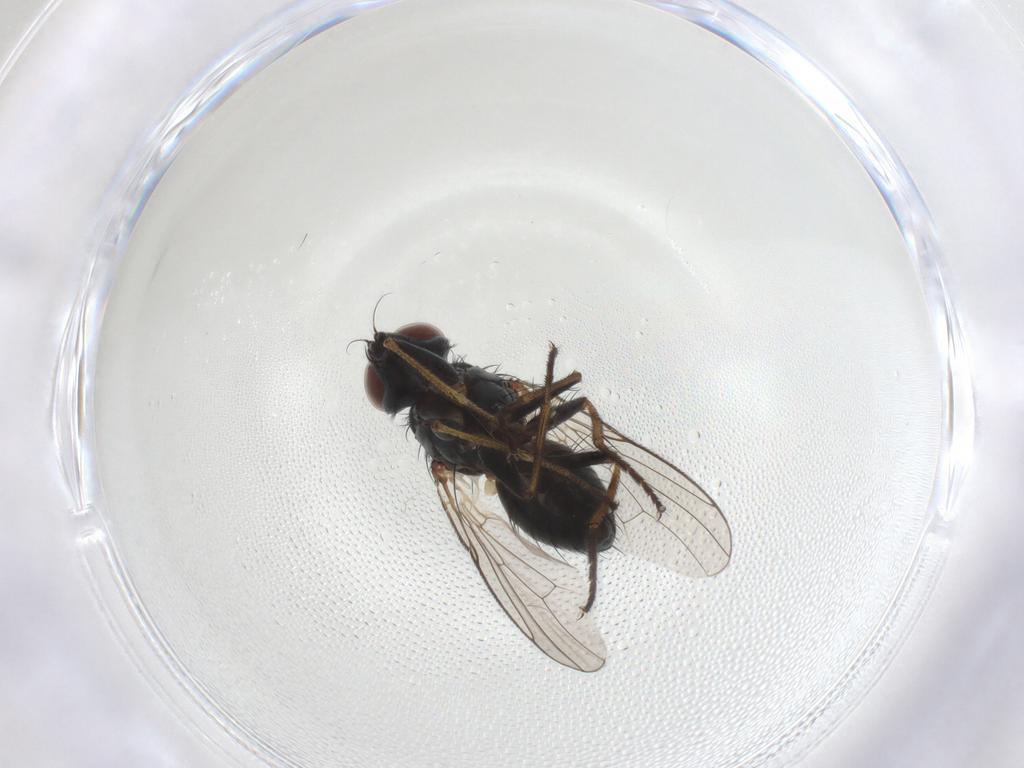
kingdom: Animalia
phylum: Arthropoda
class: Insecta
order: Diptera
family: Muscidae
